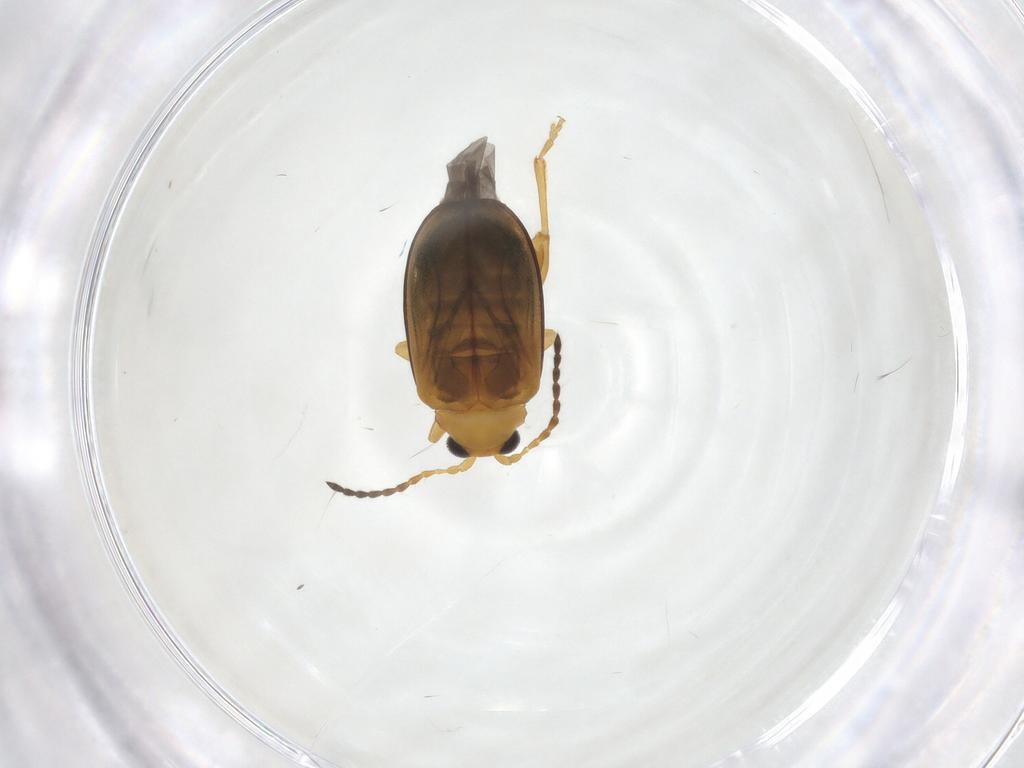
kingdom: Animalia
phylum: Arthropoda
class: Insecta
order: Coleoptera
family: Chrysomelidae
